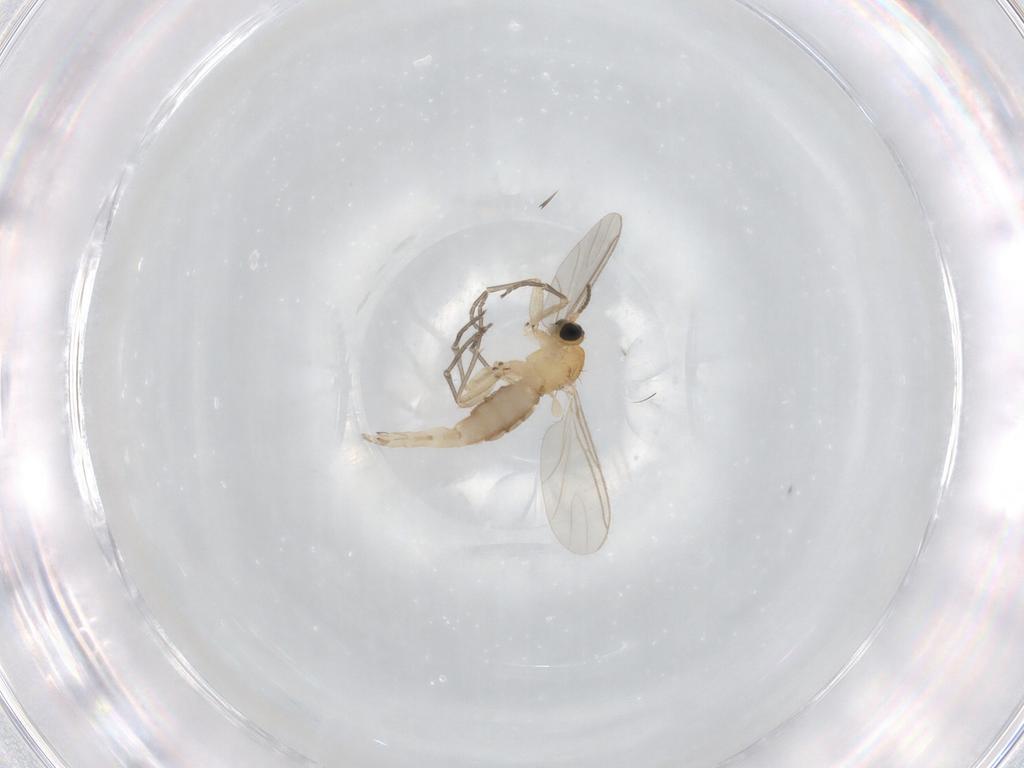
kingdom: Animalia
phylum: Arthropoda
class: Insecta
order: Diptera
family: Sciaridae
